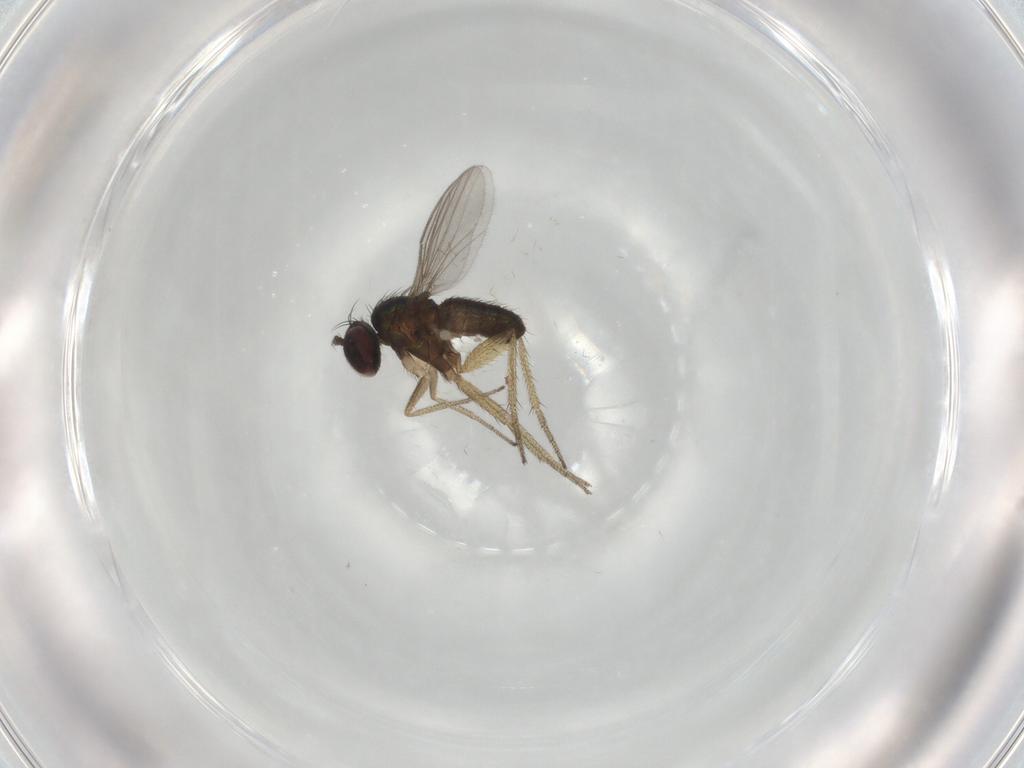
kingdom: Animalia
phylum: Arthropoda
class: Insecta
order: Diptera
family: Dolichopodidae
